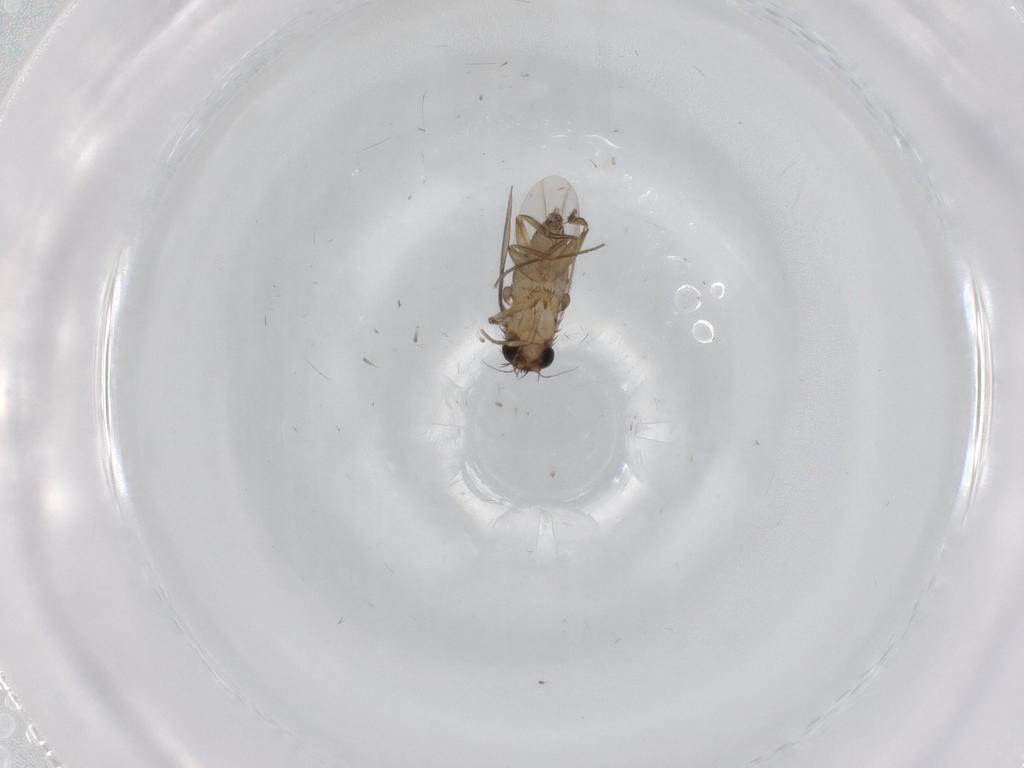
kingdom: Animalia
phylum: Arthropoda
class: Insecta
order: Diptera
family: Phoridae
